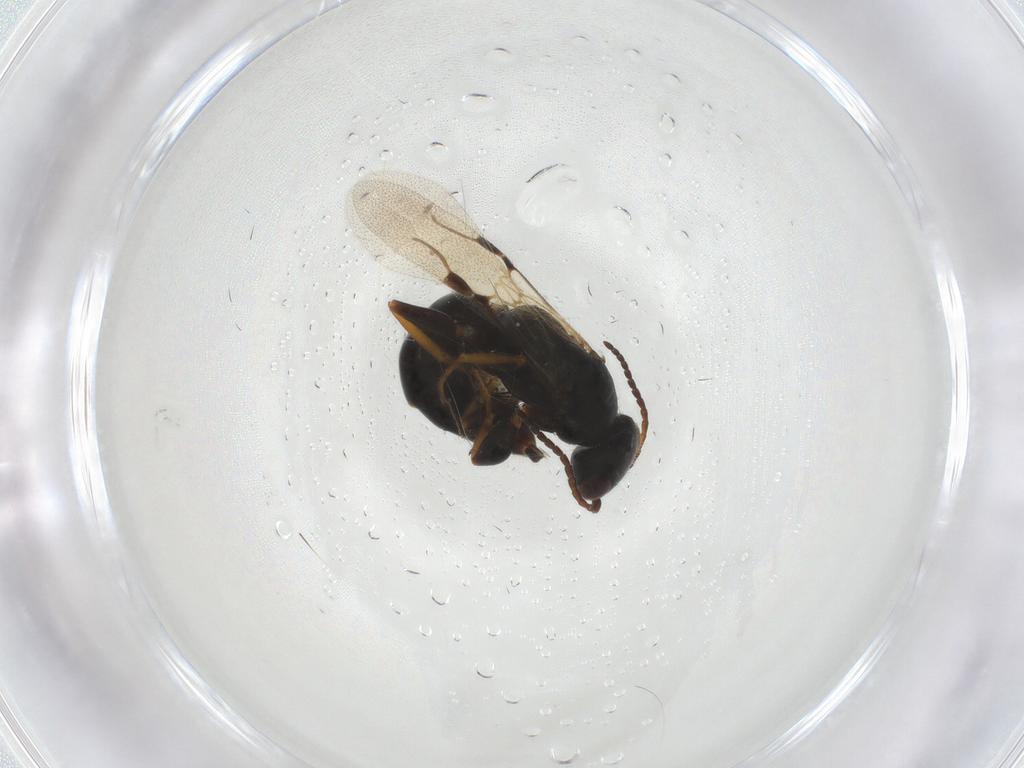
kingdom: Animalia
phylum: Arthropoda
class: Insecta
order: Hymenoptera
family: Bethylidae
